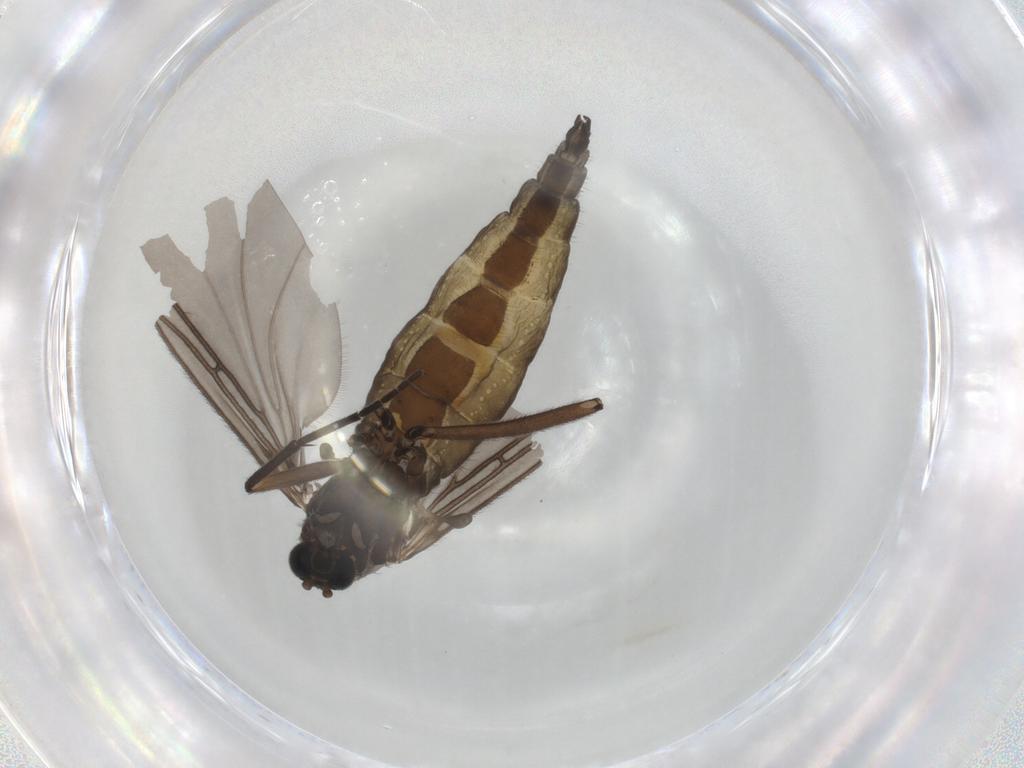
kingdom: Animalia
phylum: Arthropoda
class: Insecta
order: Diptera
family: Sciaridae
